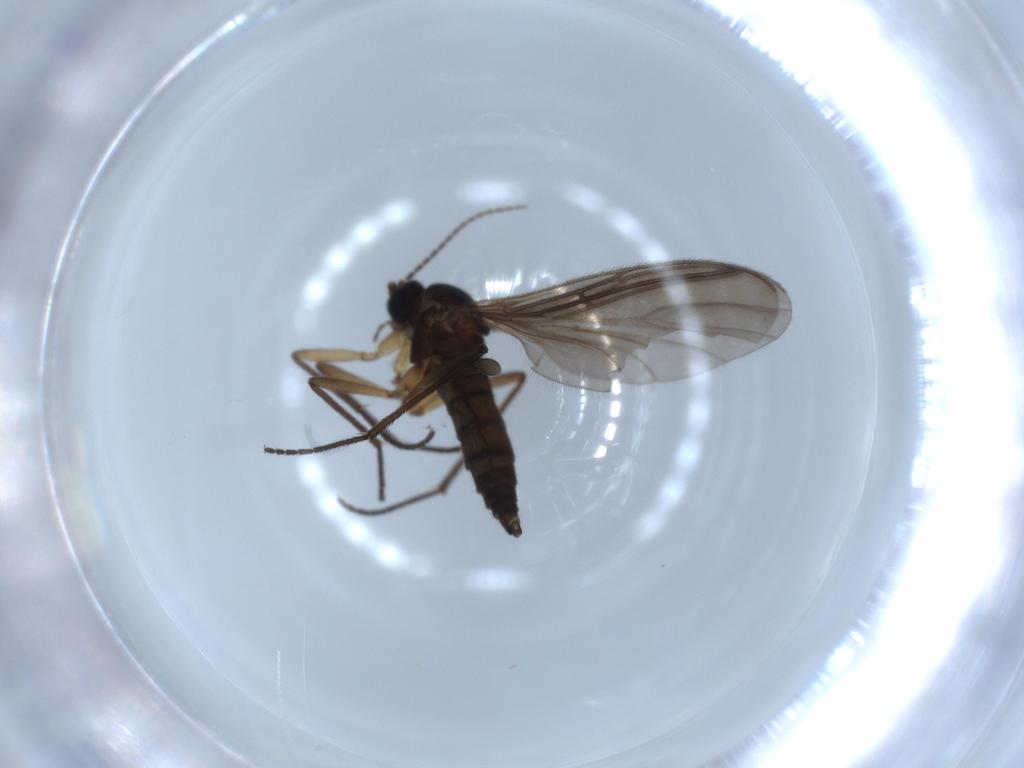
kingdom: Animalia
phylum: Arthropoda
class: Insecta
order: Diptera
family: Sciaridae
